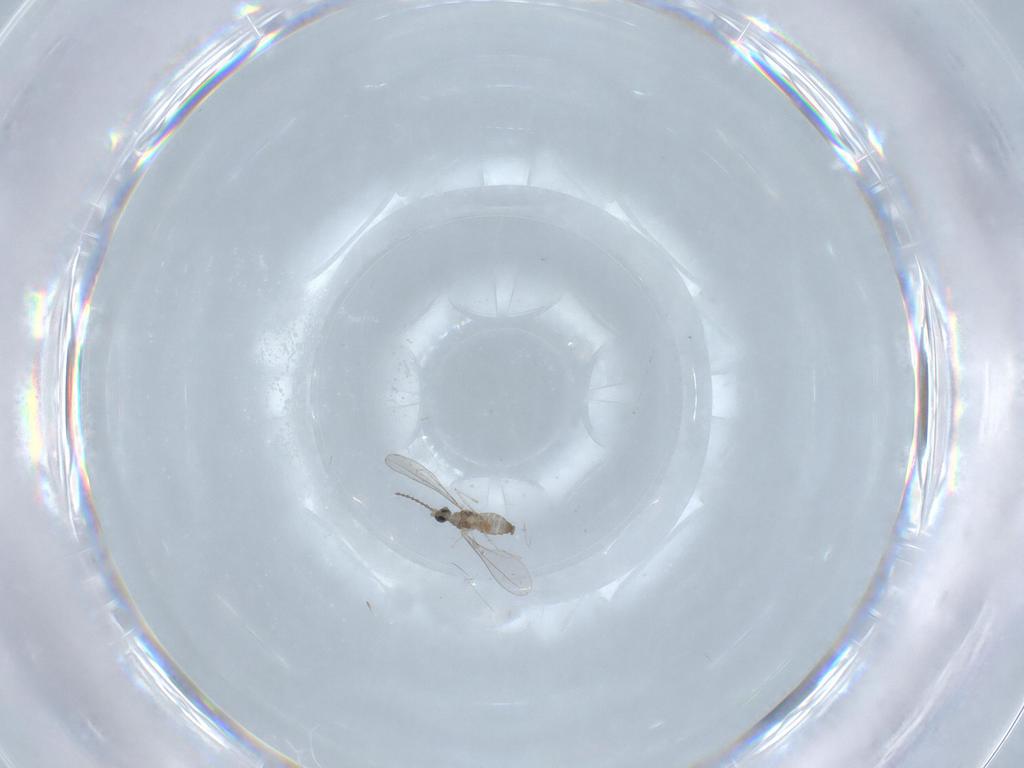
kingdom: Animalia
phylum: Arthropoda
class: Insecta
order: Diptera
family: Cecidomyiidae
